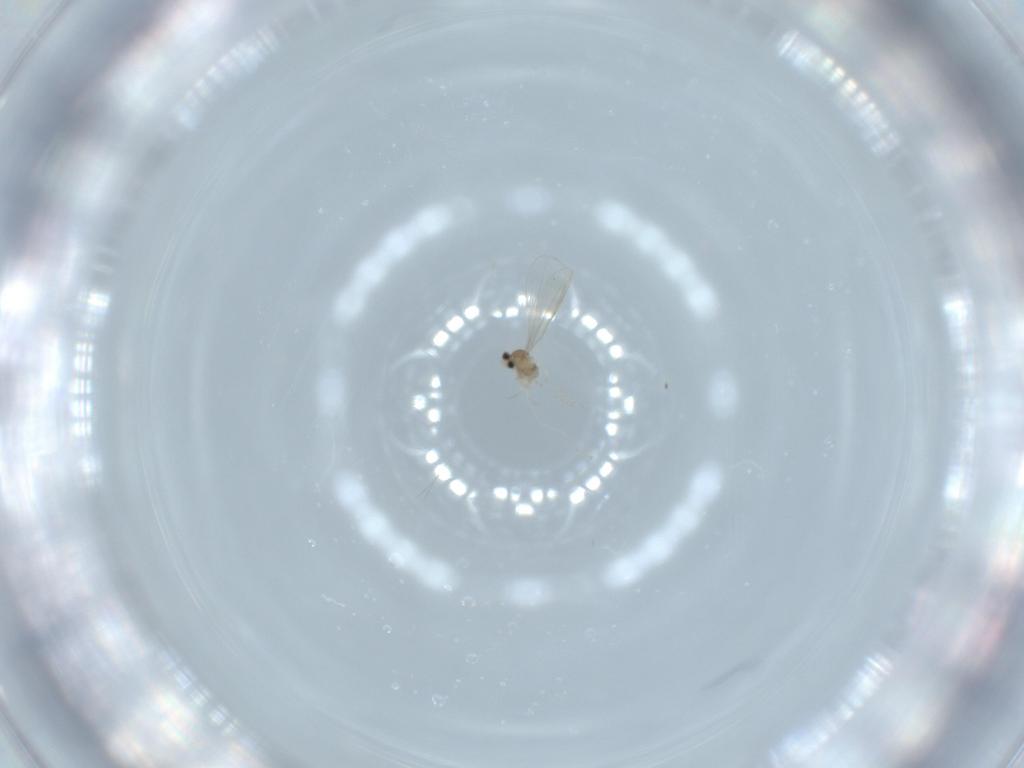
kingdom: Animalia
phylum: Arthropoda
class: Insecta
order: Diptera
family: Cecidomyiidae
